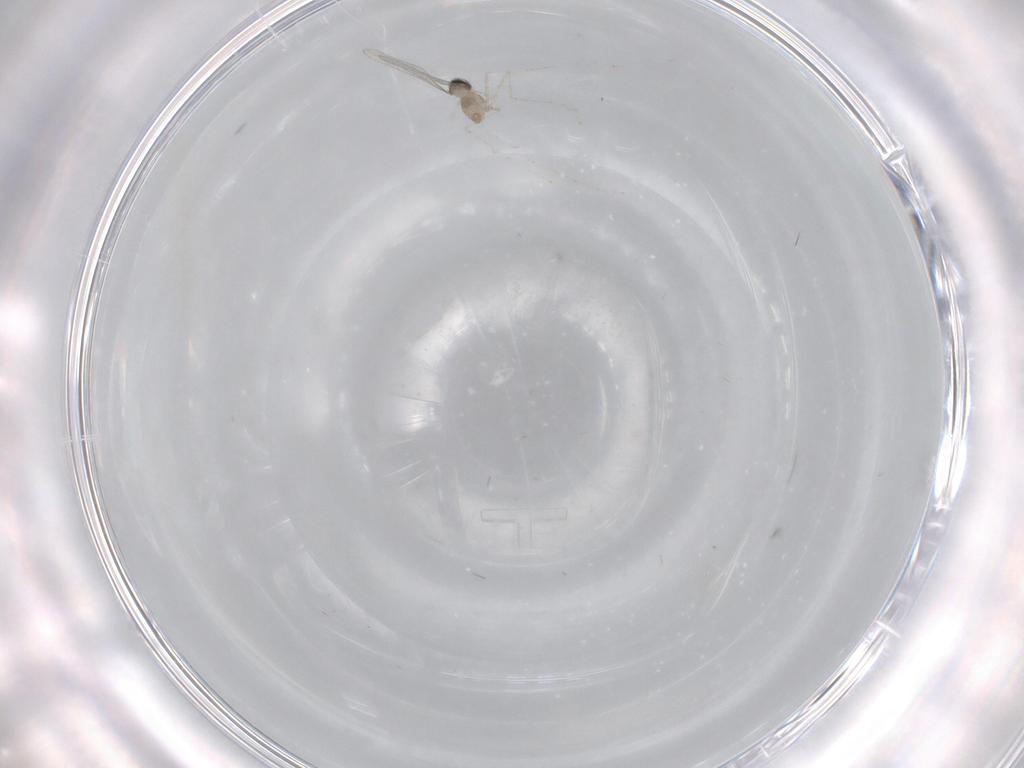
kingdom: Animalia
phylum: Arthropoda
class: Insecta
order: Diptera
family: Cecidomyiidae
